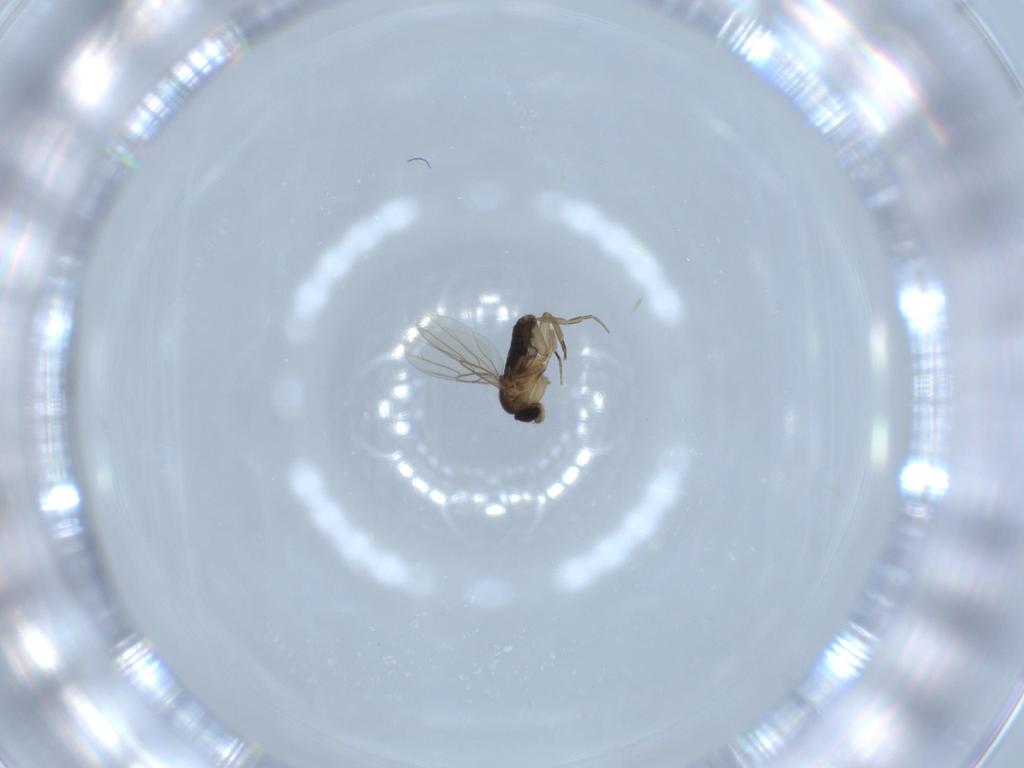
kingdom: Animalia
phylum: Arthropoda
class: Insecta
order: Diptera
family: Phoridae
